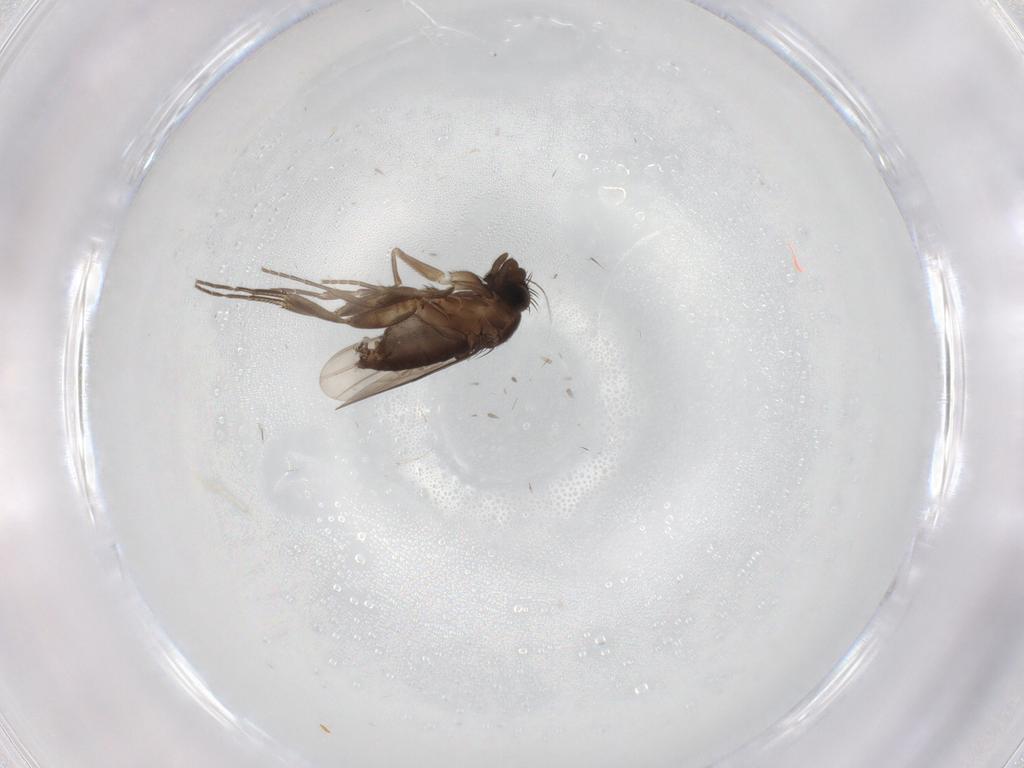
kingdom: Animalia
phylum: Arthropoda
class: Insecta
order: Diptera
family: Phoridae
